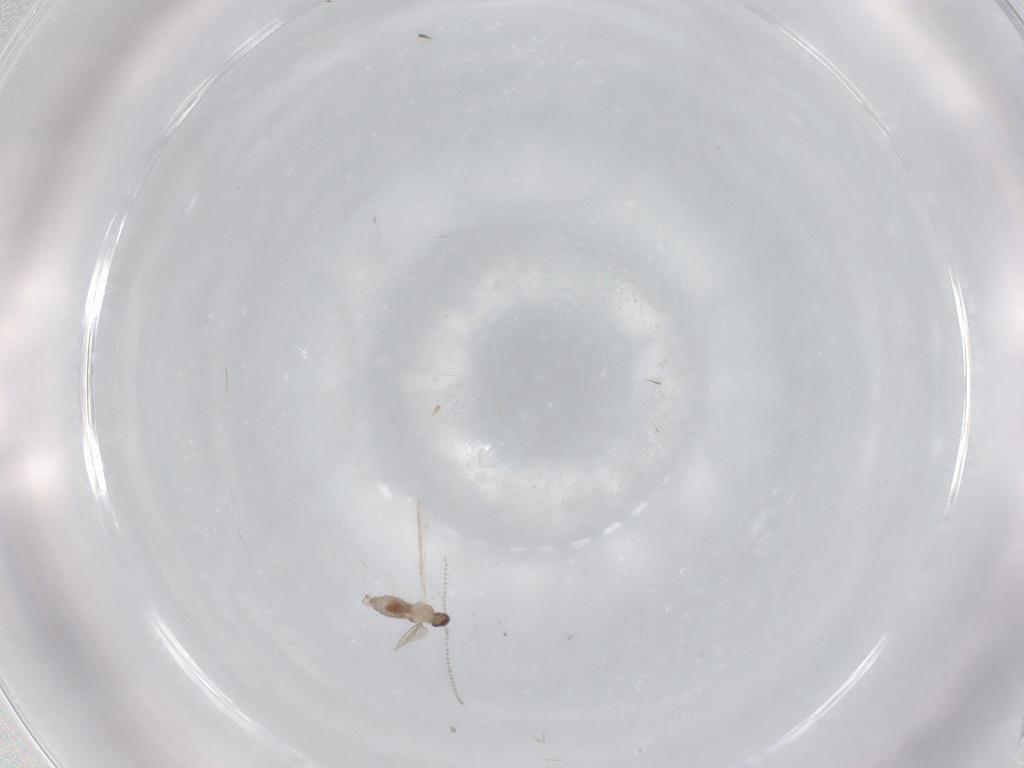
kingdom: Animalia
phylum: Arthropoda
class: Insecta
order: Diptera
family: Cecidomyiidae
